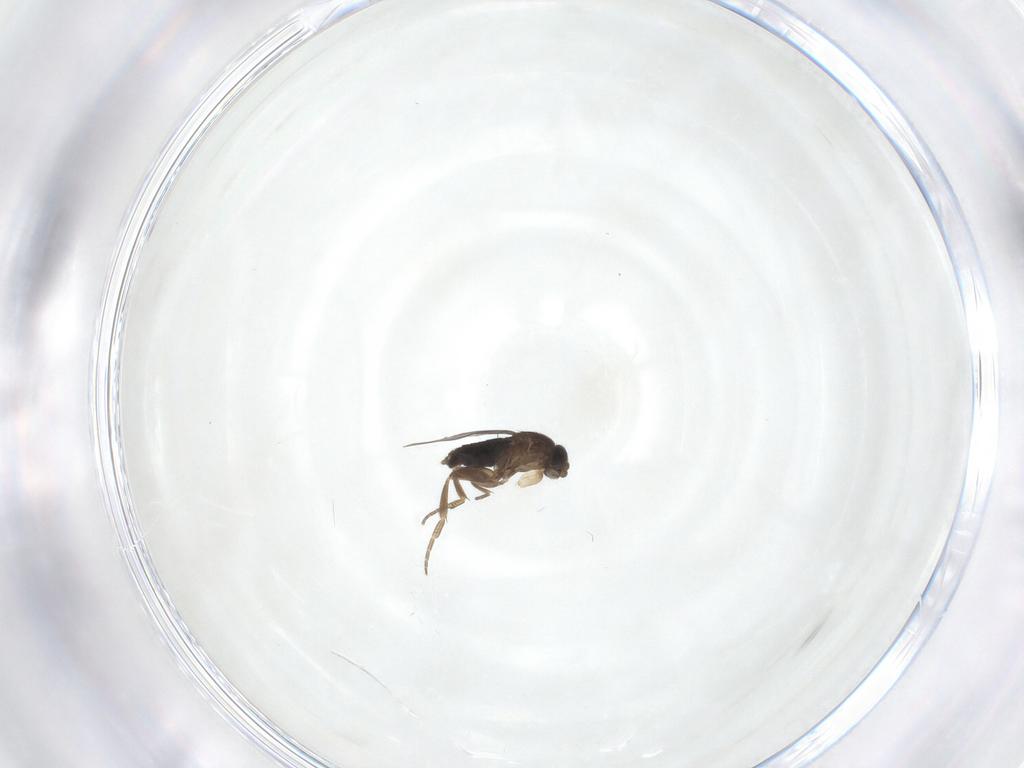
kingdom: Animalia
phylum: Arthropoda
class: Insecta
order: Diptera
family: Phoridae
